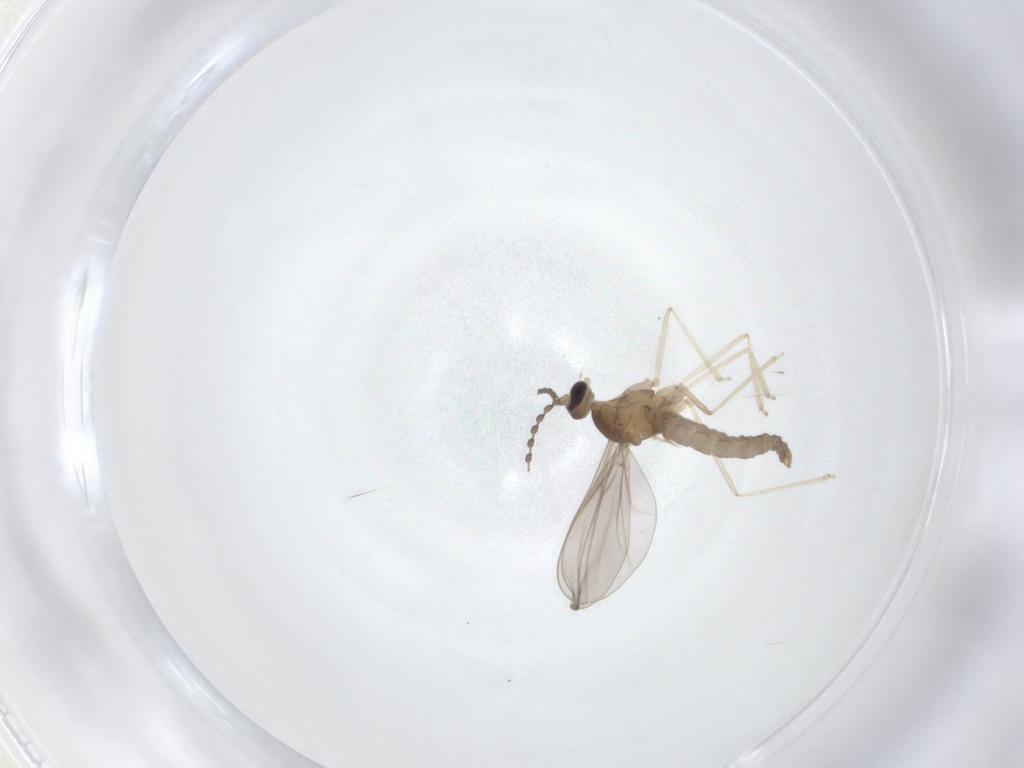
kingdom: Animalia
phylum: Arthropoda
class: Insecta
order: Diptera
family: Cecidomyiidae
